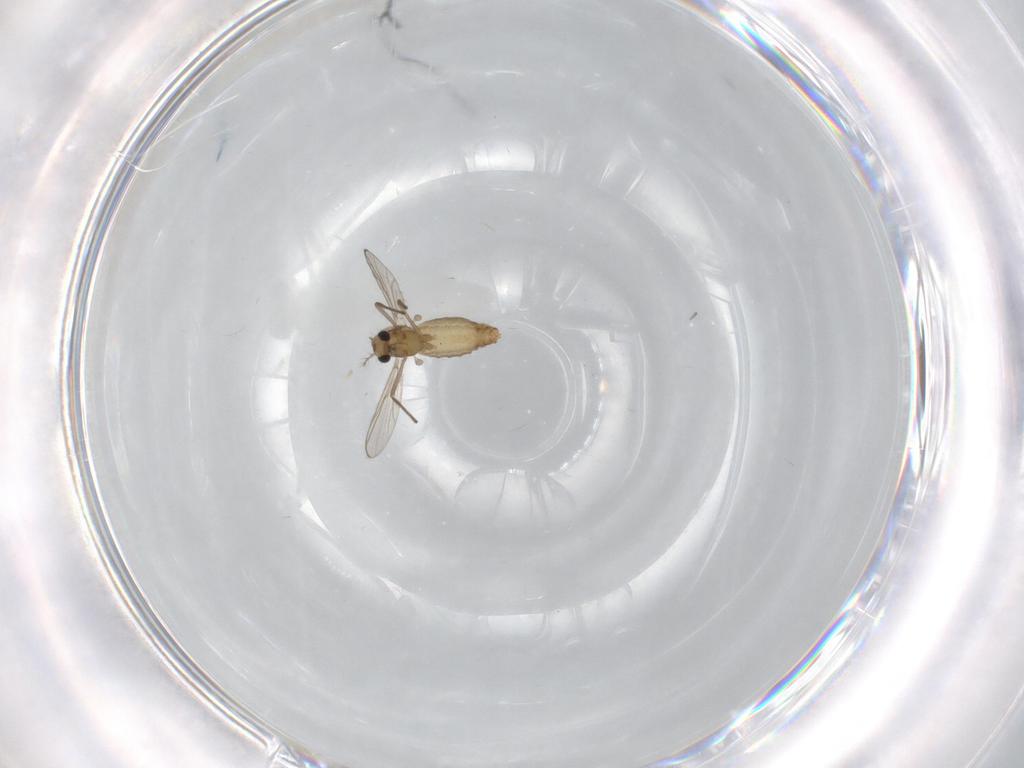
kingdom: Animalia
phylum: Arthropoda
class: Insecta
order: Diptera
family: Chironomidae
